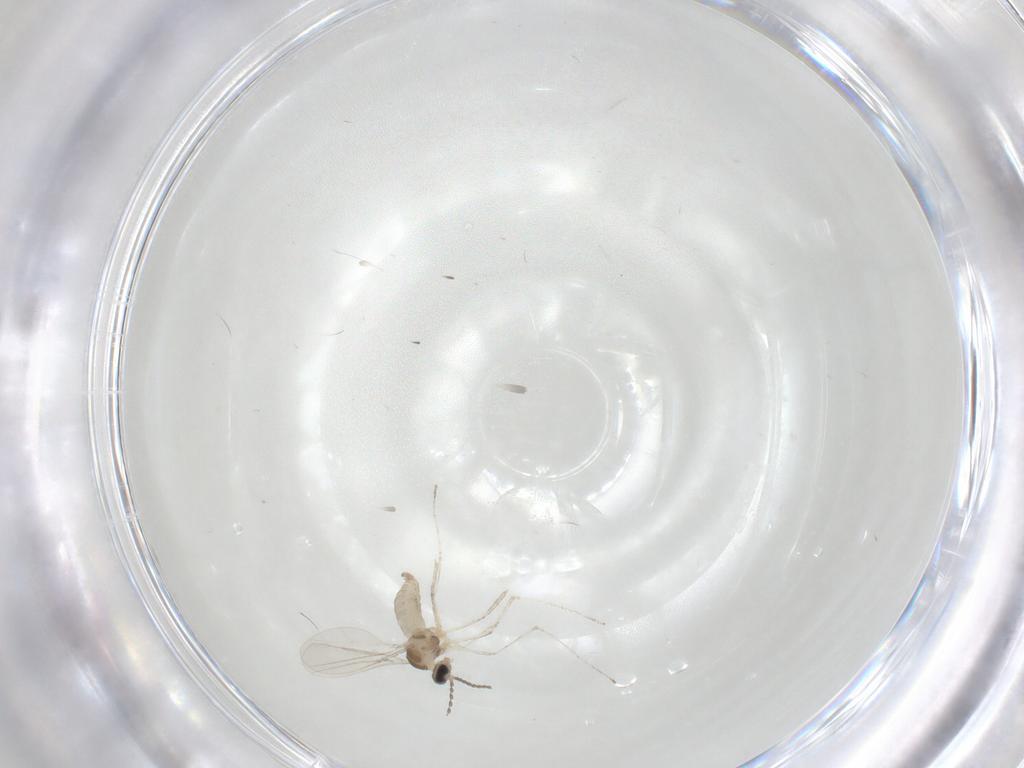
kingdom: Animalia
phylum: Arthropoda
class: Insecta
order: Diptera
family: Cecidomyiidae
